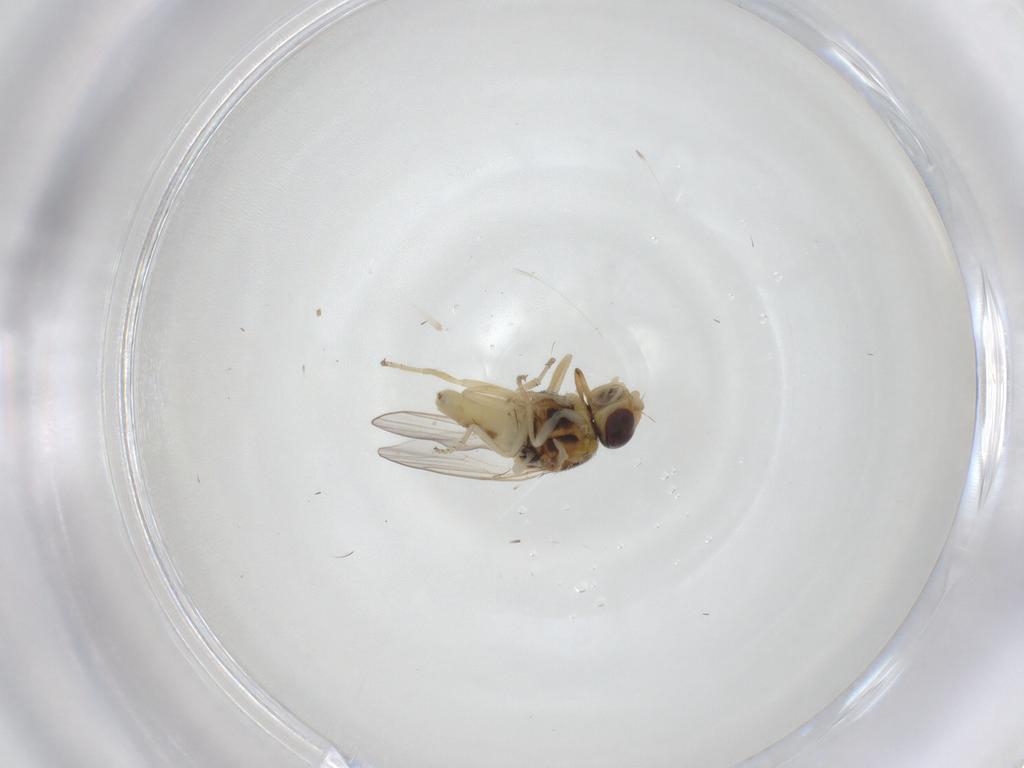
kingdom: Animalia
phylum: Arthropoda
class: Insecta
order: Diptera
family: Chloropidae
